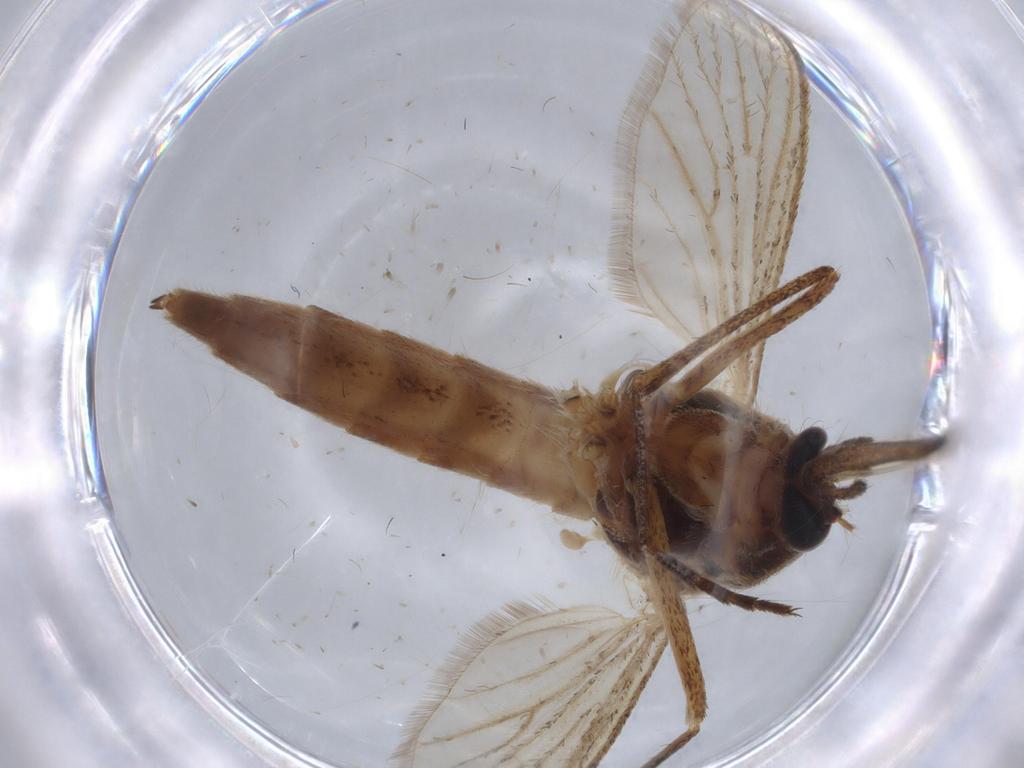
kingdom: Animalia
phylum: Arthropoda
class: Insecta
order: Diptera
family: Culicidae
